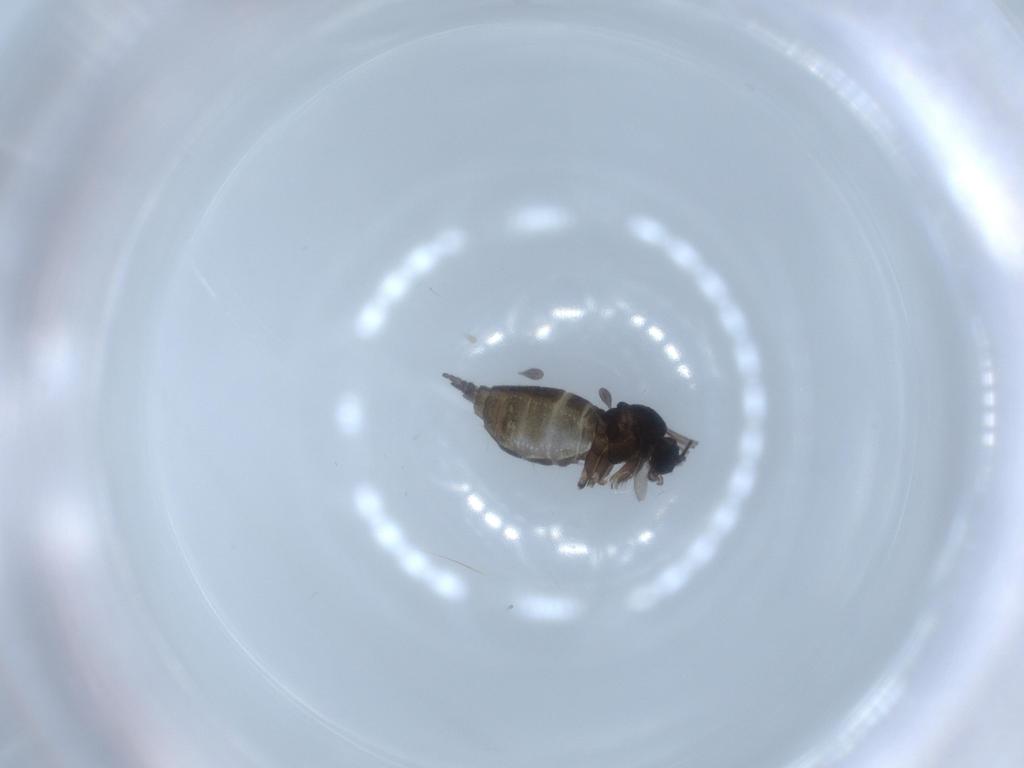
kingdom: Animalia
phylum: Arthropoda
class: Insecta
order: Diptera
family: Sciaridae
